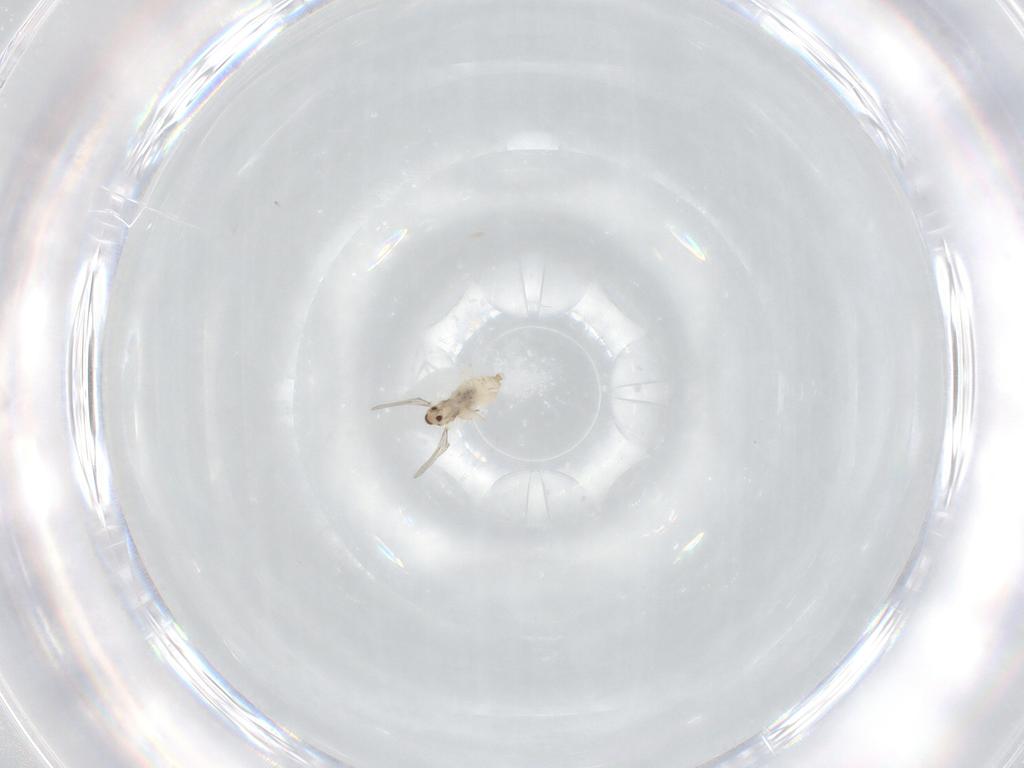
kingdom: Animalia
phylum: Arthropoda
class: Insecta
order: Diptera
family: Cecidomyiidae
